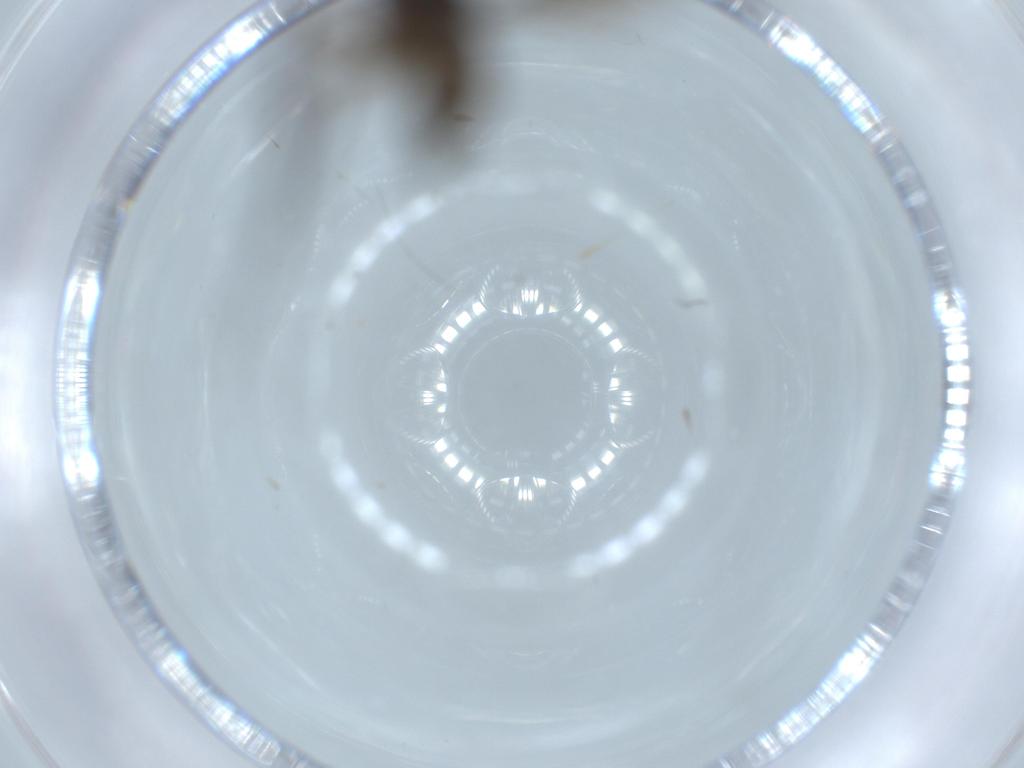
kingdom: Animalia
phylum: Arthropoda
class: Insecta
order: Diptera
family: Sciaridae
